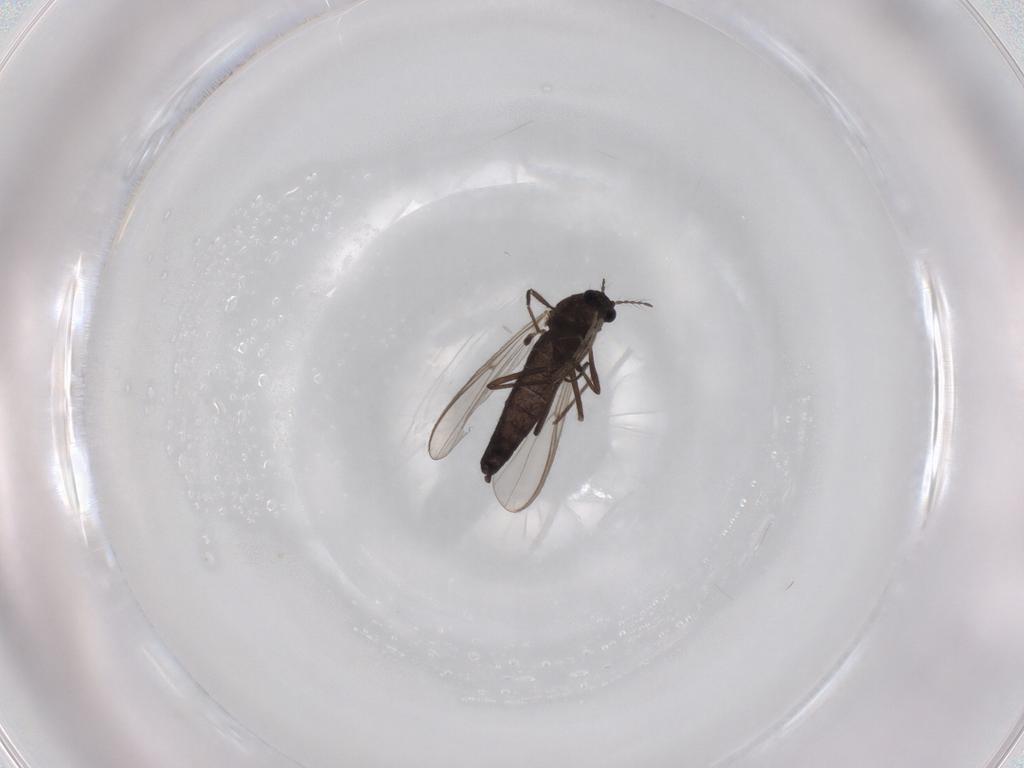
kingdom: Animalia
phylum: Arthropoda
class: Insecta
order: Diptera
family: Chironomidae
